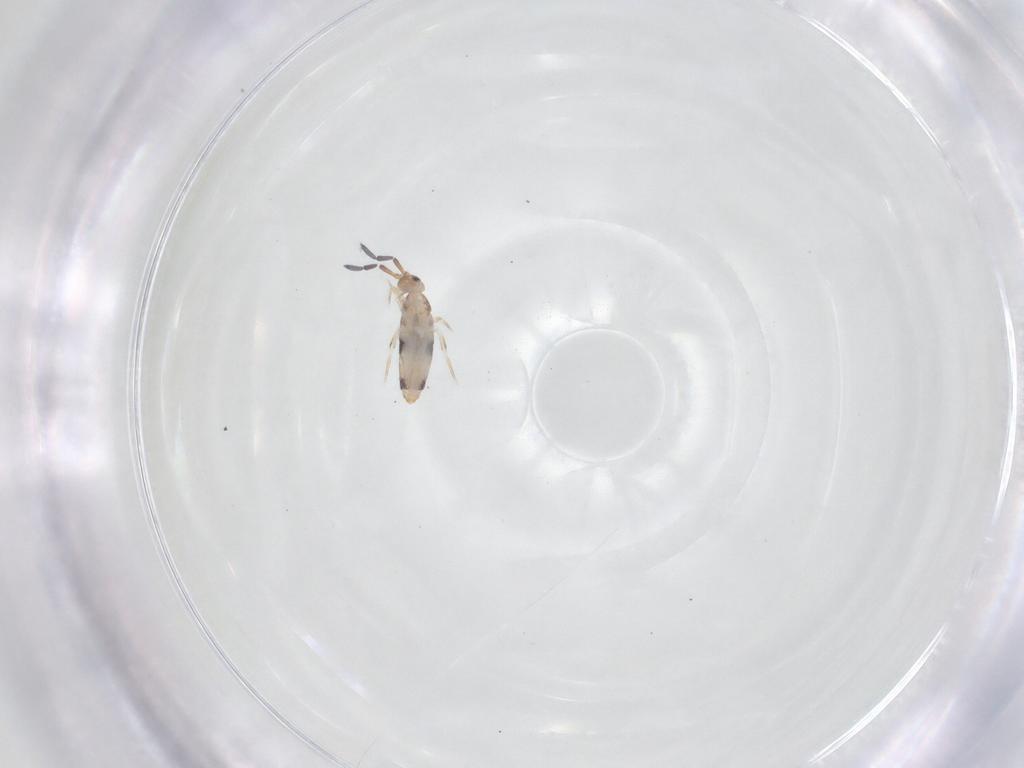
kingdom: Animalia
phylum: Arthropoda
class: Collembola
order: Entomobryomorpha
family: Entomobryidae
